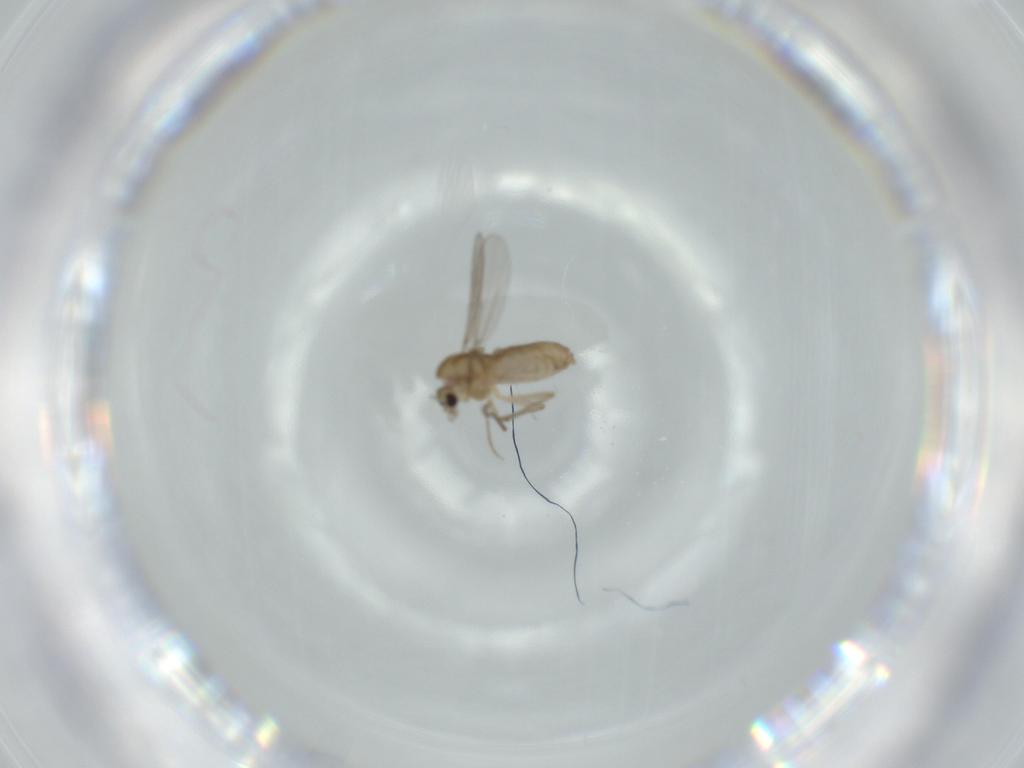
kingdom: Animalia
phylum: Arthropoda
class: Insecta
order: Diptera
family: Chironomidae
